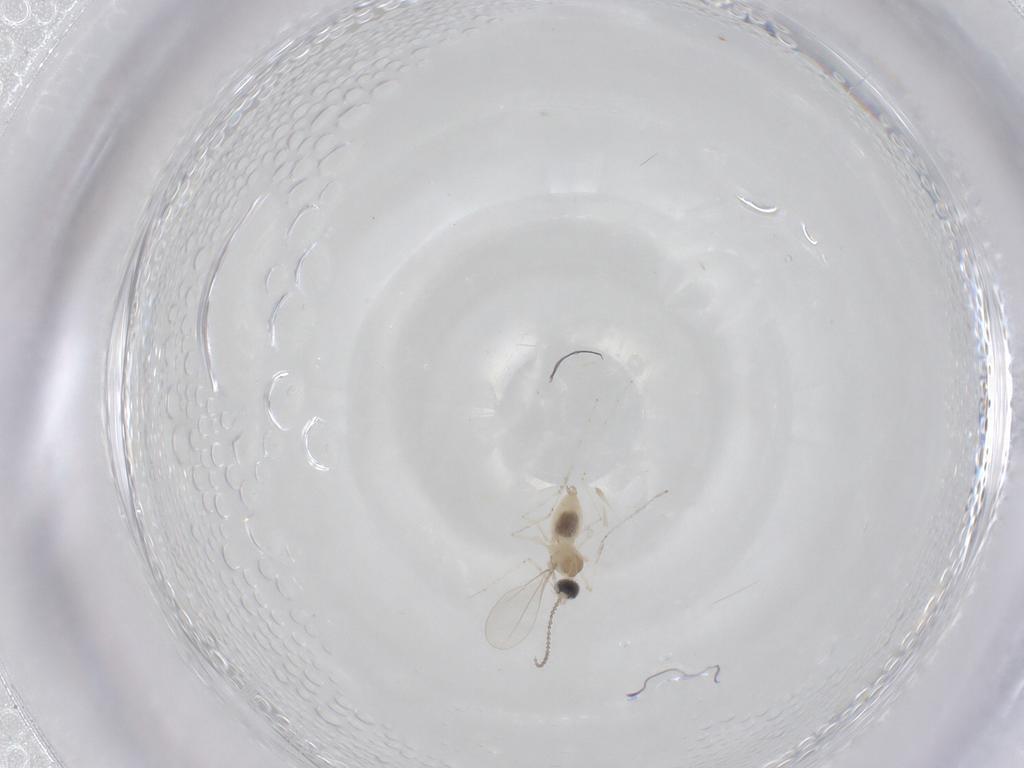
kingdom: Animalia
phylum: Arthropoda
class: Insecta
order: Diptera
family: Cecidomyiidae
